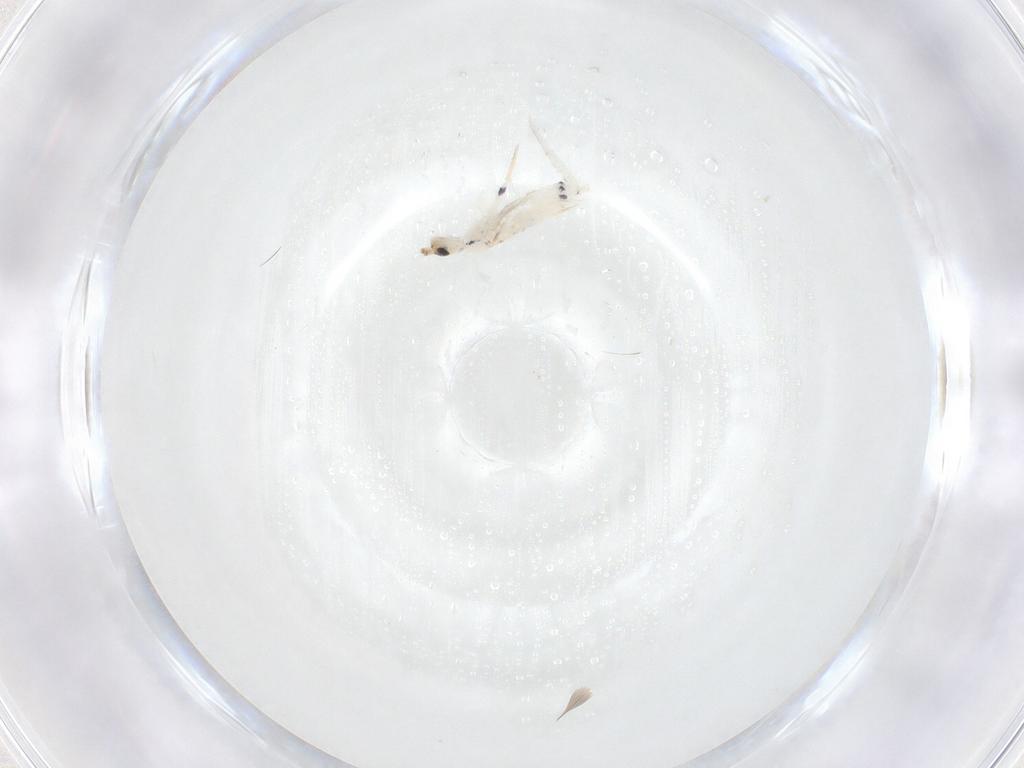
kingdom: Animalia
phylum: Arthropoda
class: Collembola
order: Entomobryomorpha
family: Entomobryidae
